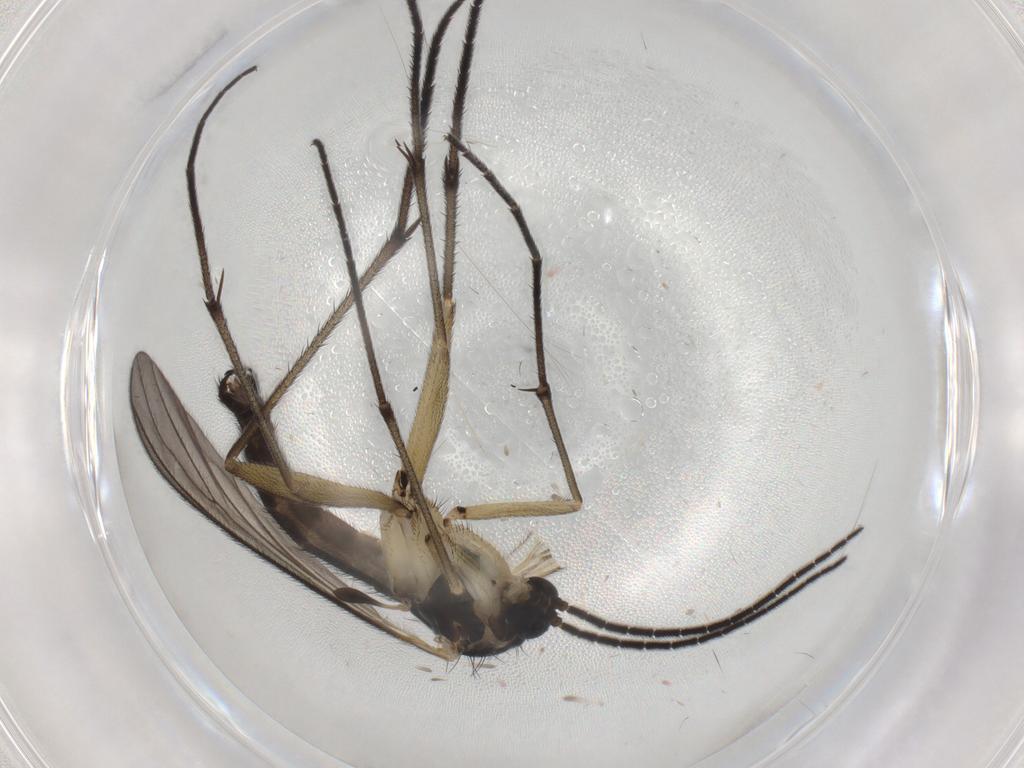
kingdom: Animalia
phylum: Arthropoda
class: Insecta
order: Diptera
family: Sciaridae
